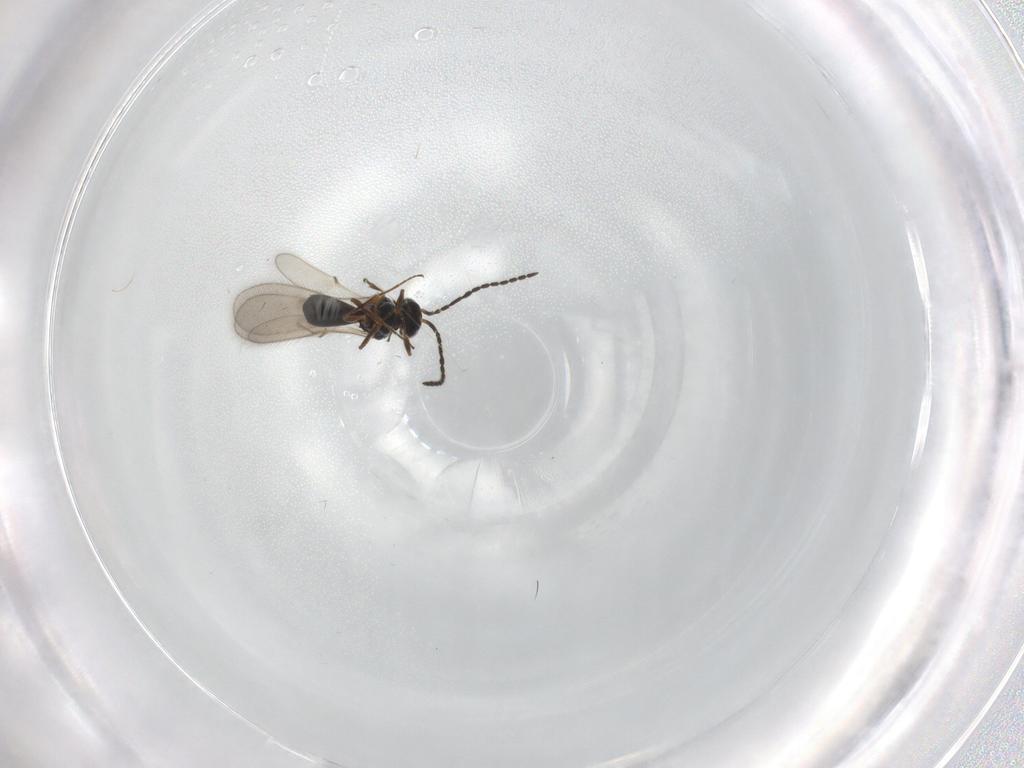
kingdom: Animalia
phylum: Arthropoda
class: Insecta
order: Hymenoptera
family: Scelionidae
